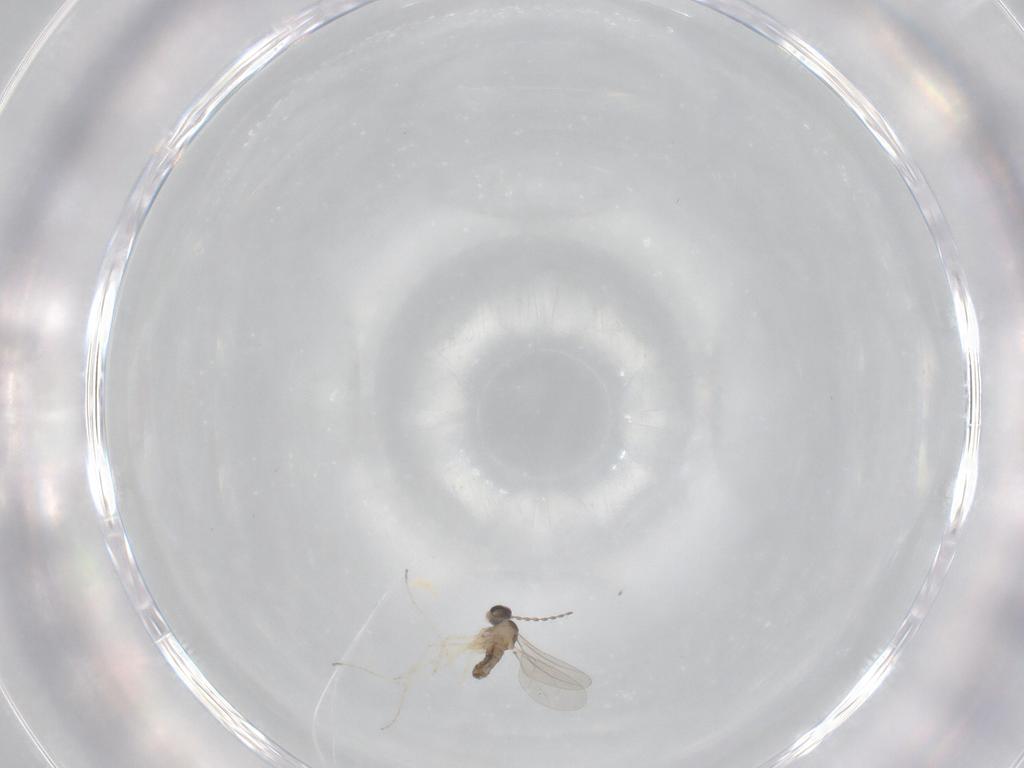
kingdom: Animalia
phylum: Arthropoda
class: Insecta
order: Diptera
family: Cecidomyiidae
